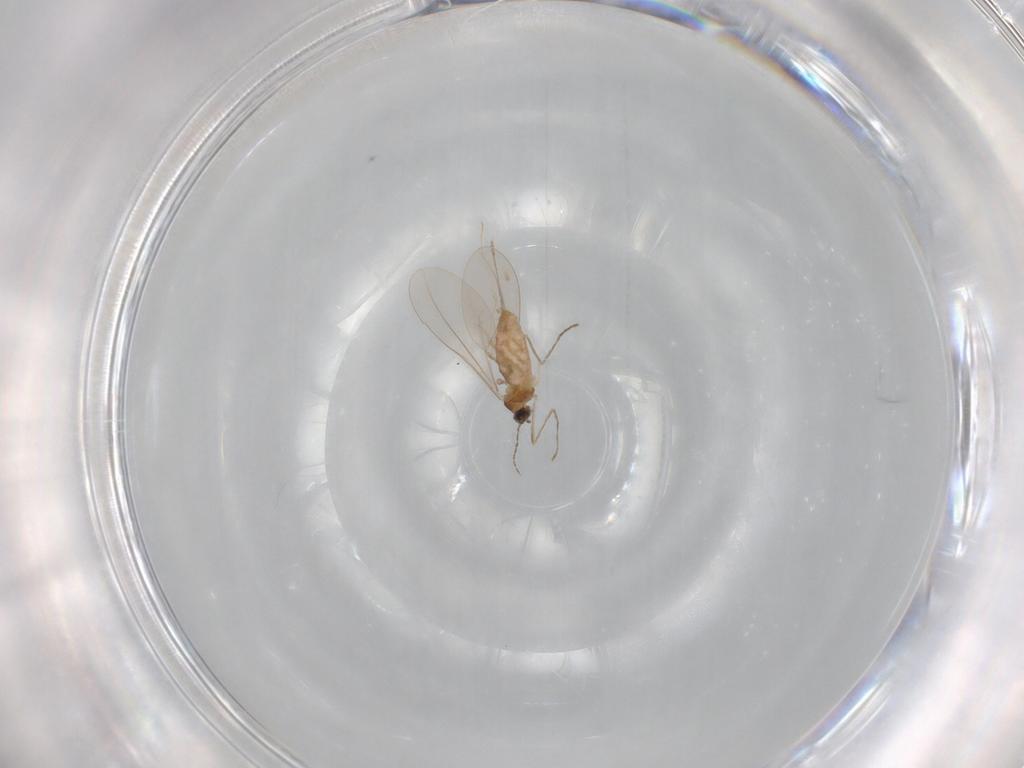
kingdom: Animalia
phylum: Arthropoda
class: Insecta
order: Diptera
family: Cecidomyiidae
